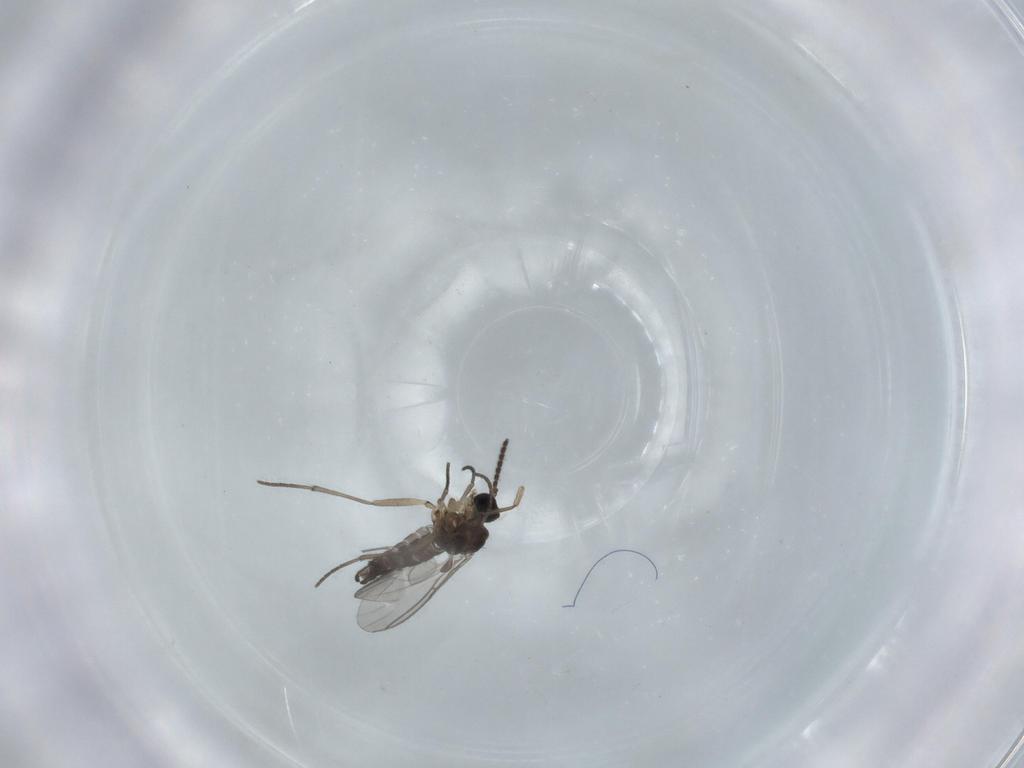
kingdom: Animalia
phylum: Arthropoda
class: Insecta
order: Diptera
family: Sciaridae
